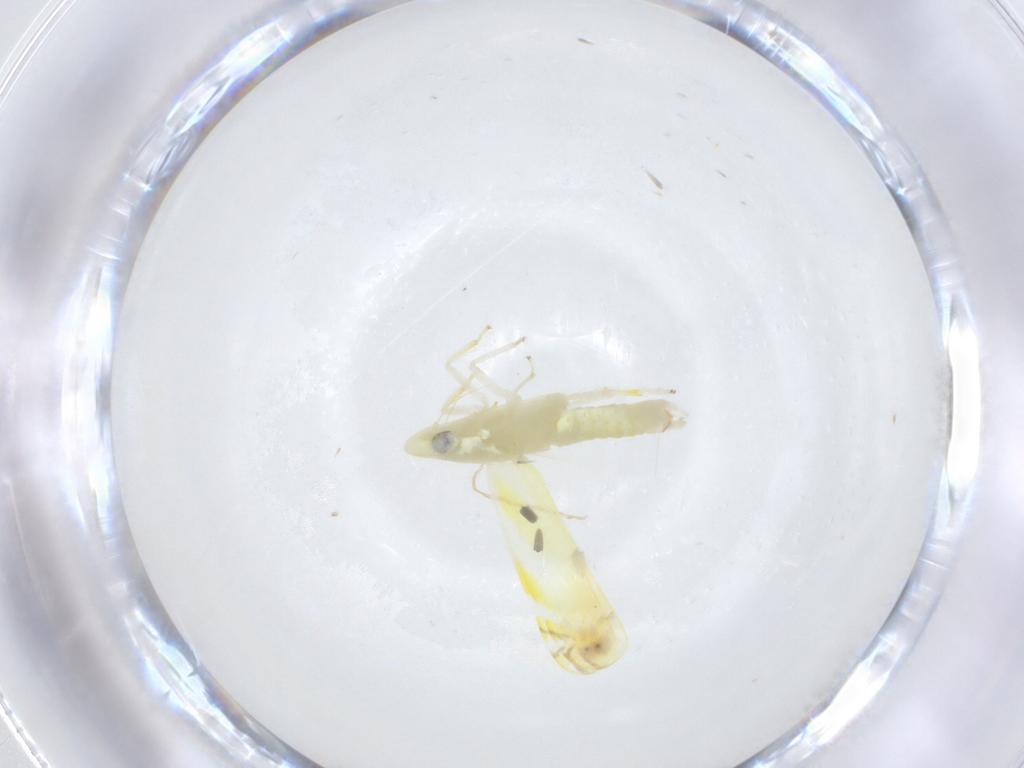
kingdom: Animalia
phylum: Arthropoda
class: Insecta
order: Hemiptera
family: Cicadellidae
